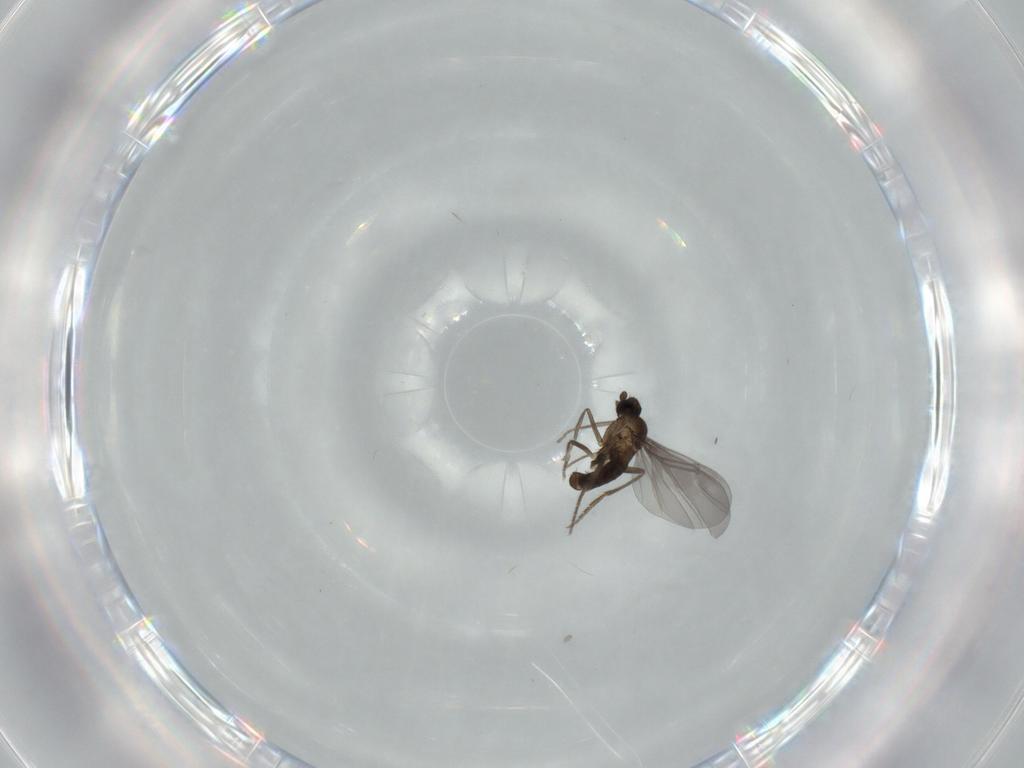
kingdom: Animalia
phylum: Arthropoda
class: Insecta
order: Diptera
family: Phoridae
